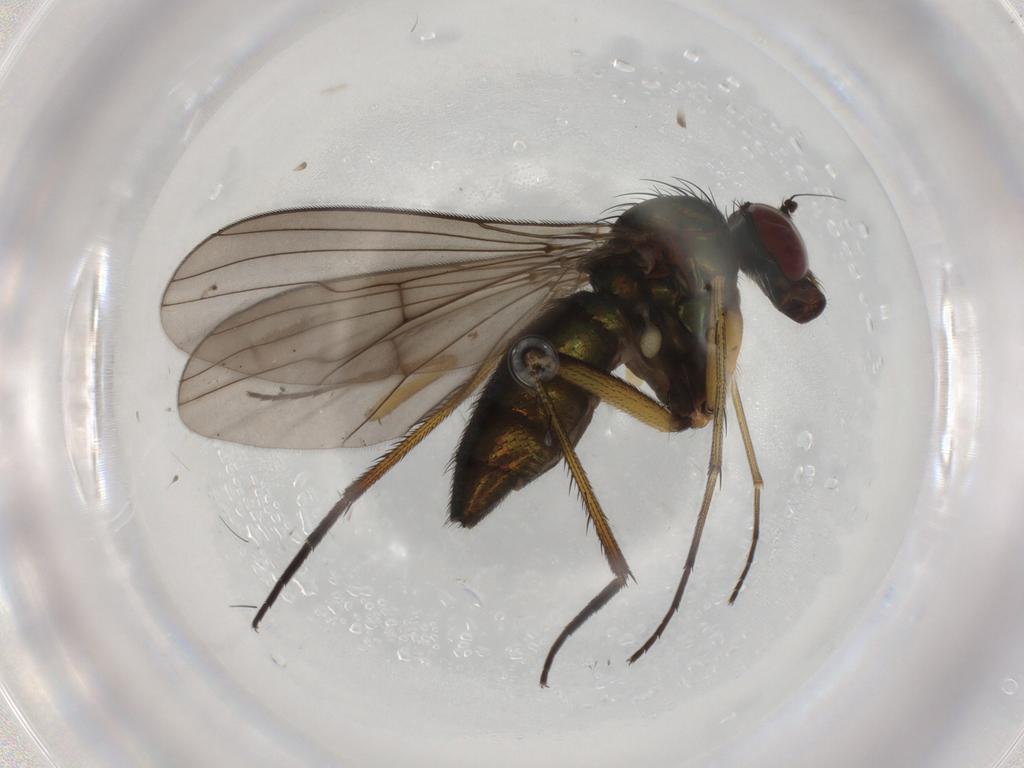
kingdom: Animalia
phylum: Arthropoda
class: Insecta
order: Diptera
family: Dolichopodidae
